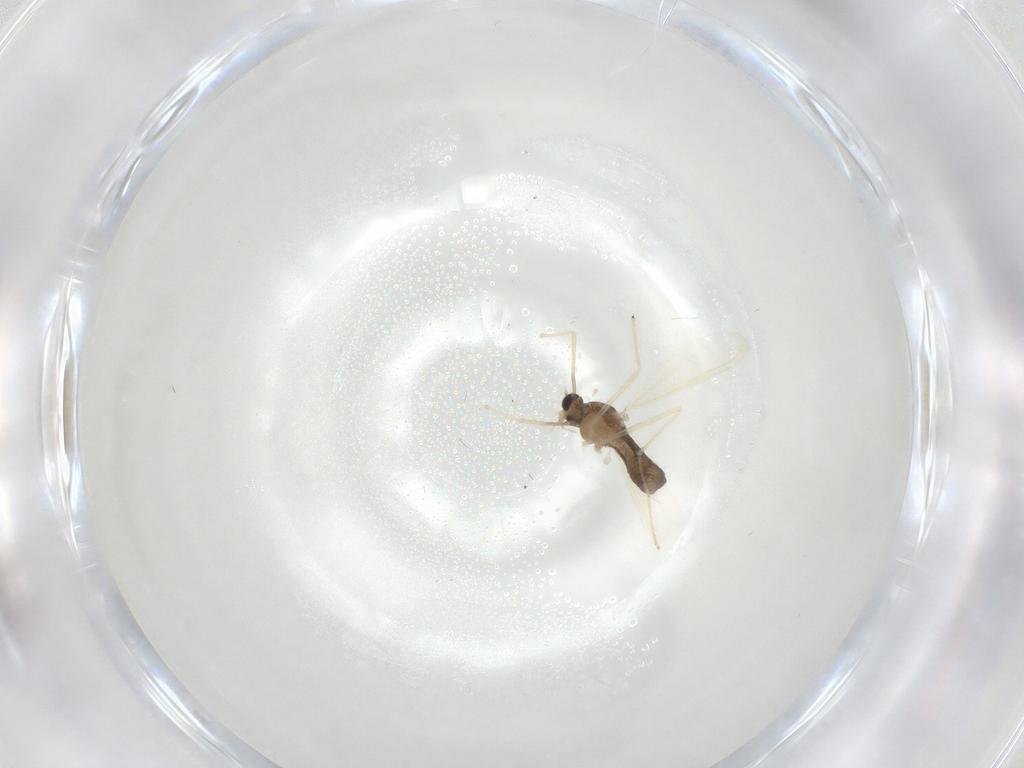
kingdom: Animalia
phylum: Arthropoda
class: Insecta
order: Diptera
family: Chironomidae
